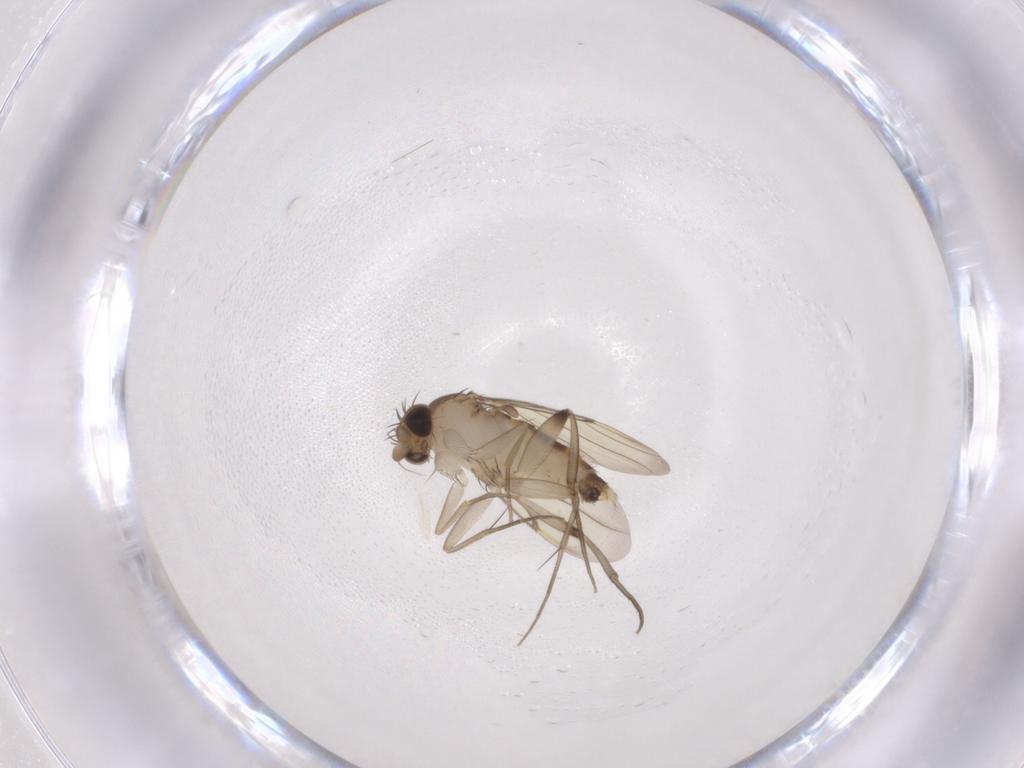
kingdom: Animalia
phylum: Arthropoda
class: Insecta
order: Diptera
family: Phoridae
